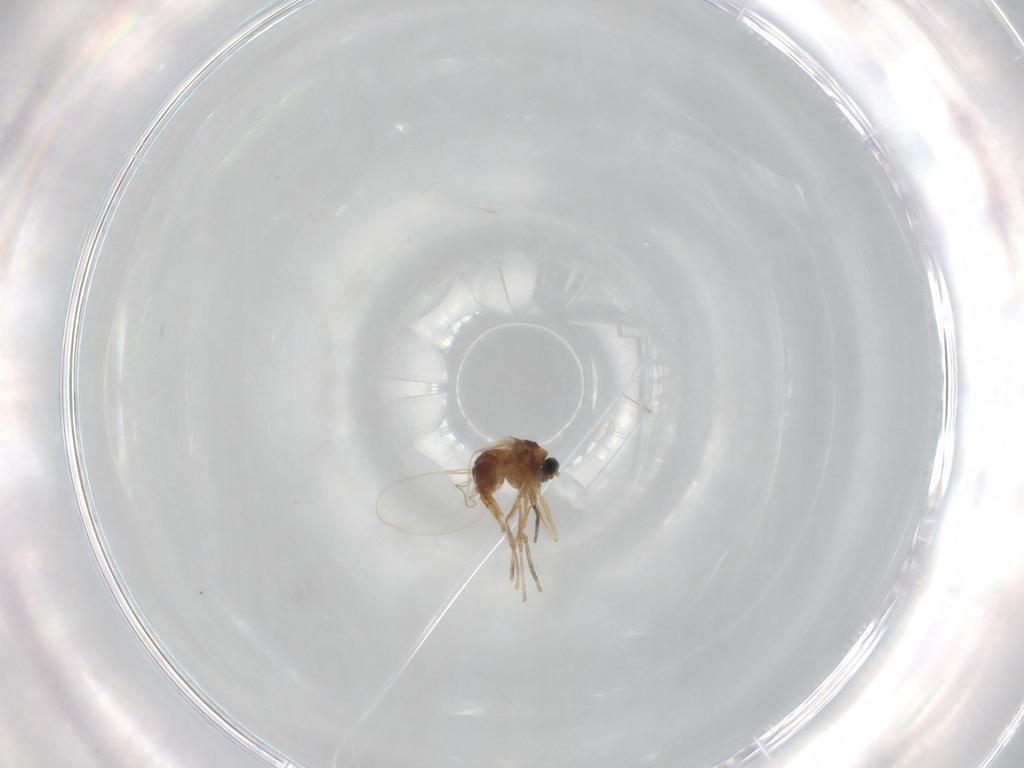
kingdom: Animalia
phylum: Arthropoda
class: Insecta
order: Diptera
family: Cecidomyiidae
